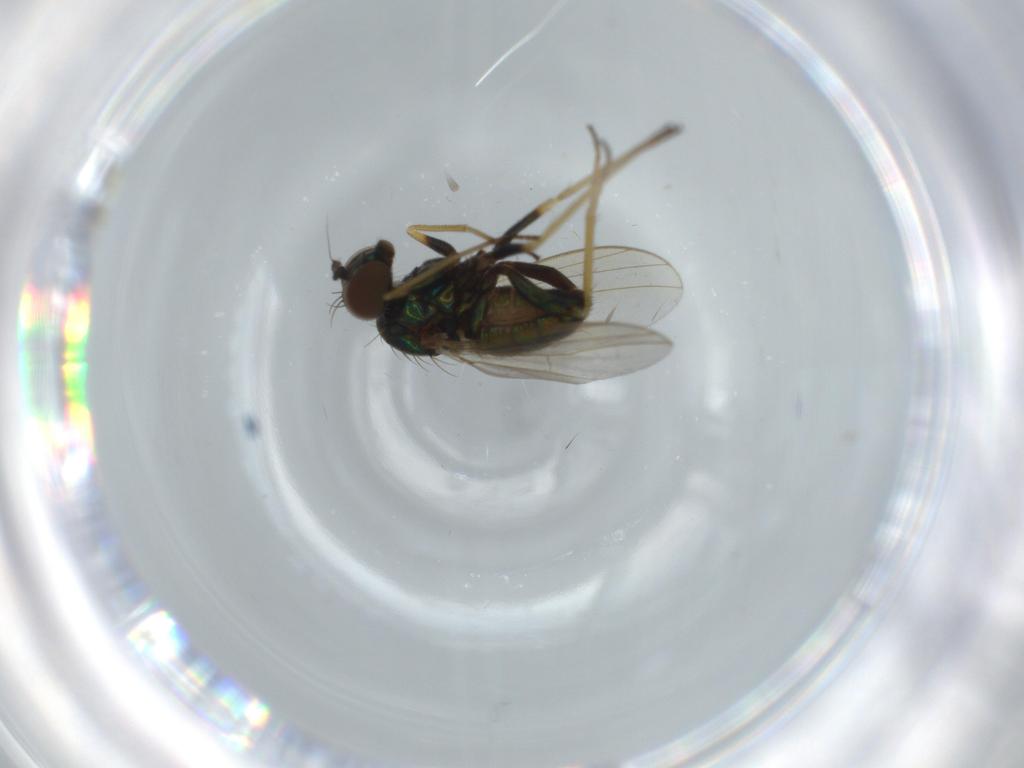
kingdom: Animalia
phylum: Arthropoda
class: Insecta
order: Diptera
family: Dolichopodidae
